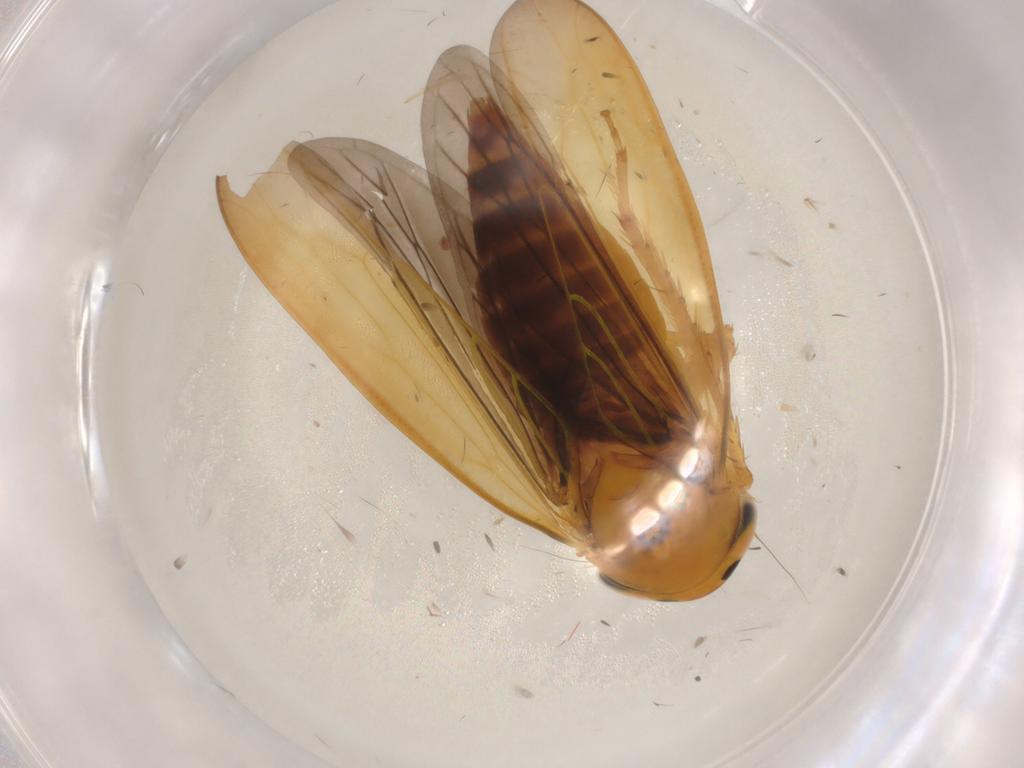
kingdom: Animalia
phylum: Arthropoda
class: Insecta
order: Hemiptera
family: Cicadellidae
